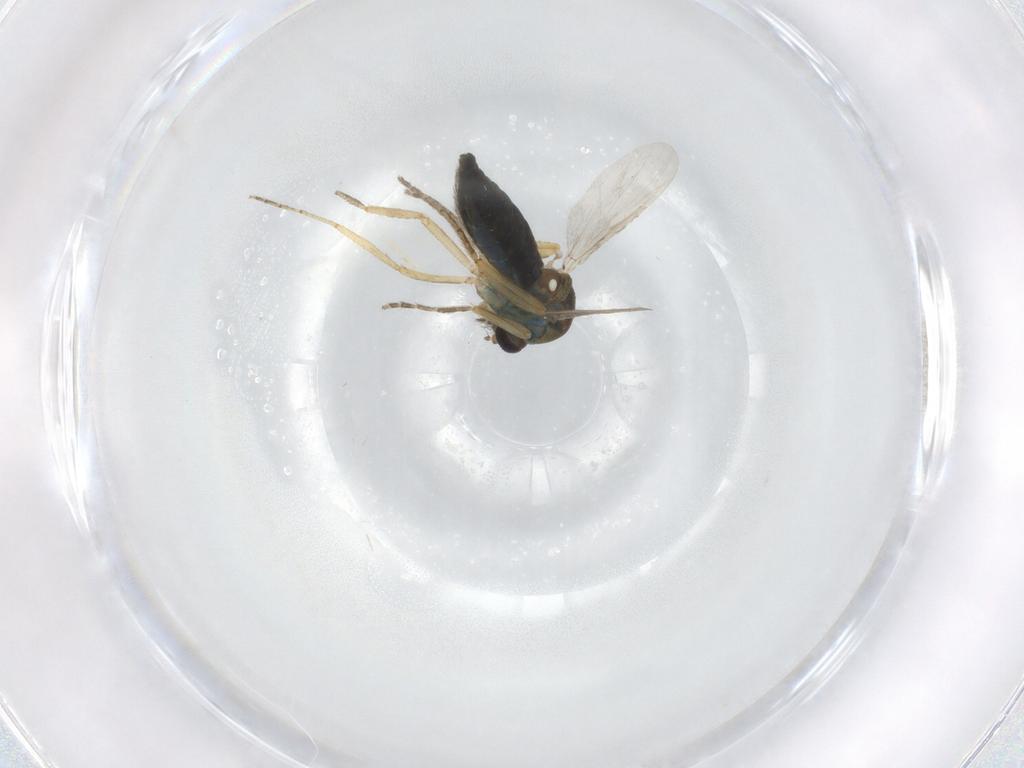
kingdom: Animalia
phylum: Arthropoda
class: Insecta
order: Diptera
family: Ceratopogonidae
